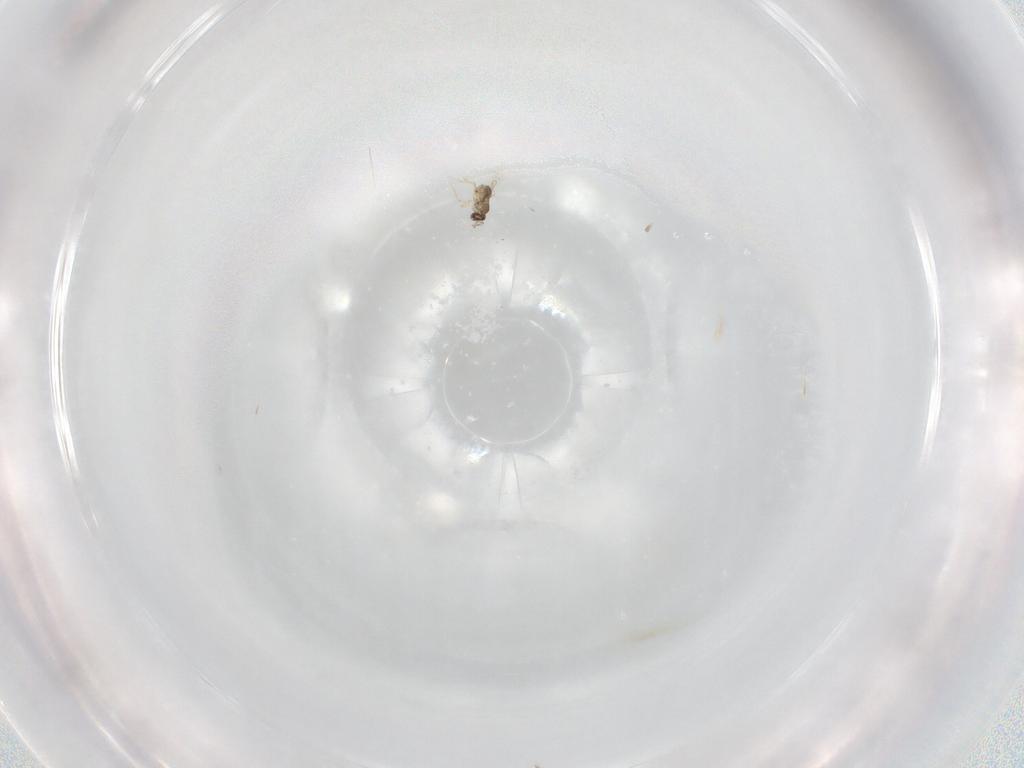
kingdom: Animalia
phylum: Arthropoda
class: Insecta
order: Hymenoptera
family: Mymaridae
